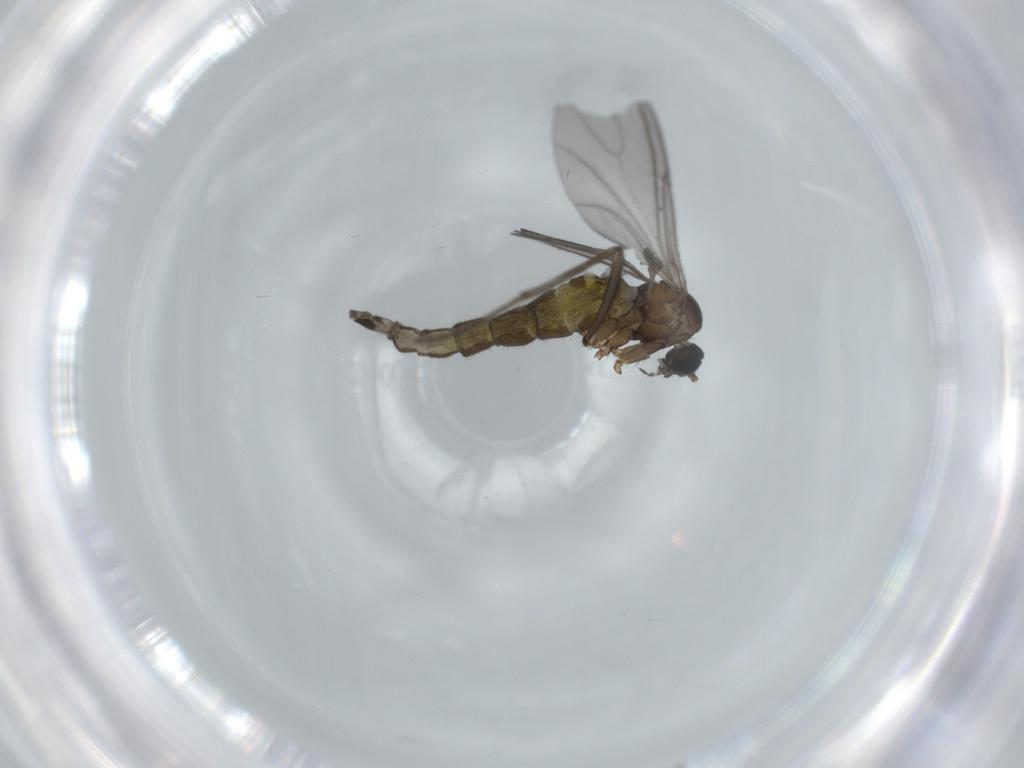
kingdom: Animalia
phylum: Arthropoda
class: Insecta
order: Diptera
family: Sciaridae
